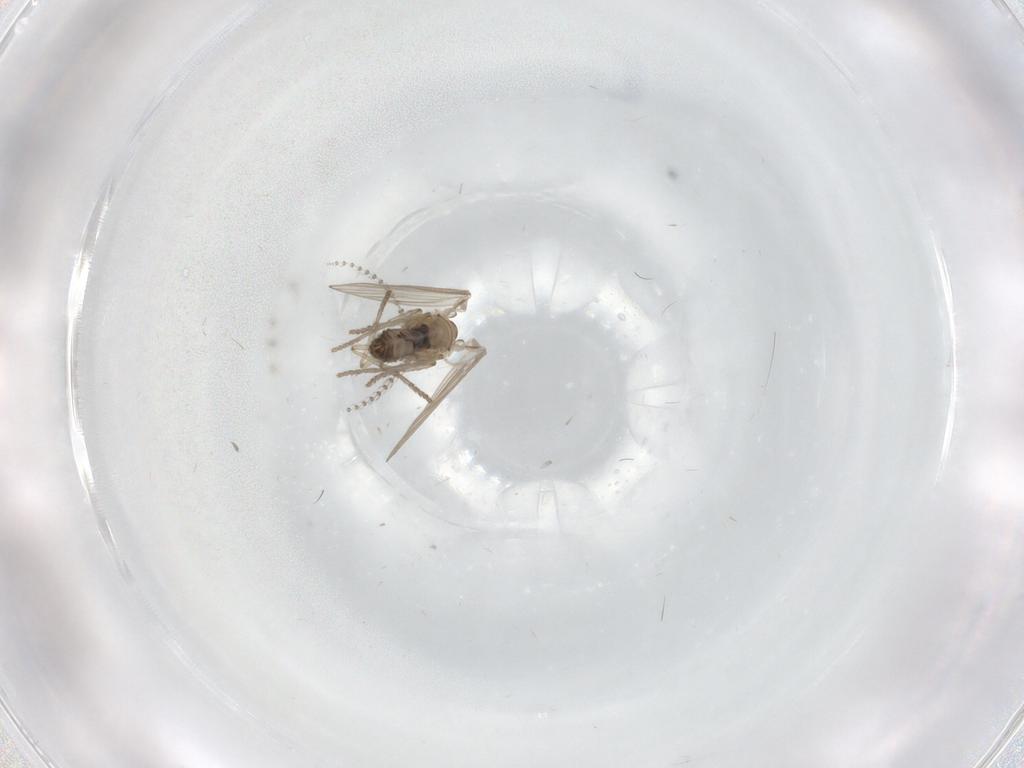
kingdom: Animalia
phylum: Arthropoda
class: Insecta
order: Diptera
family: Psychodidae
